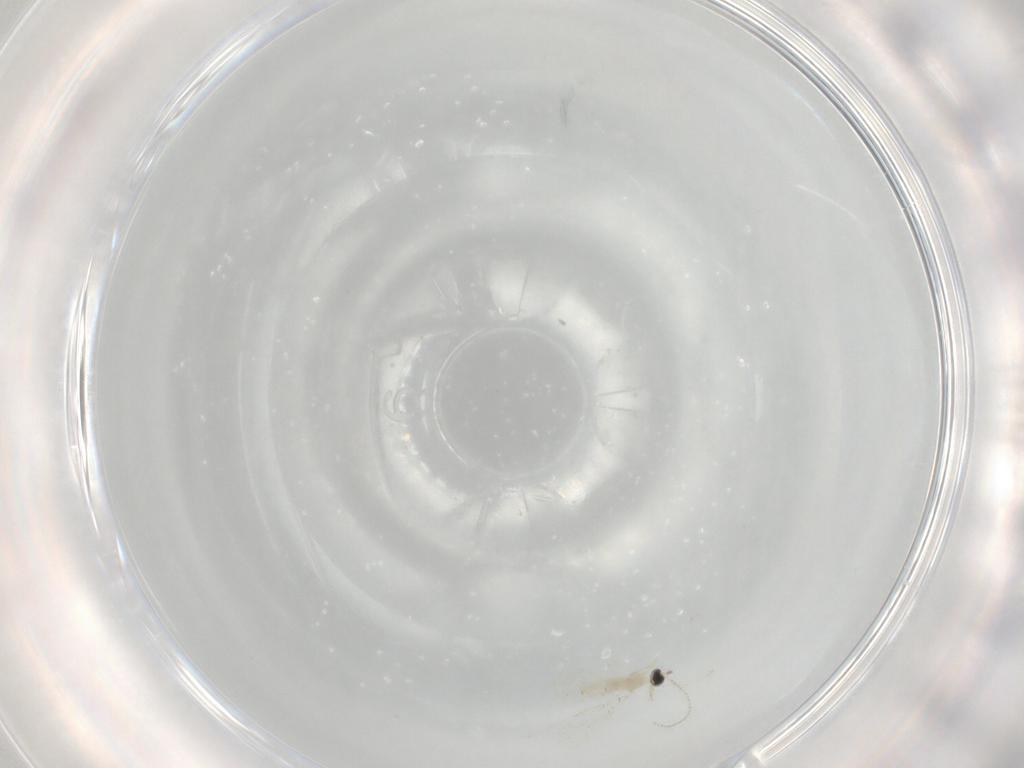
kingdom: Animalia
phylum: Arthropoda
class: Insecta
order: Diptera
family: Cecidomyiidae
